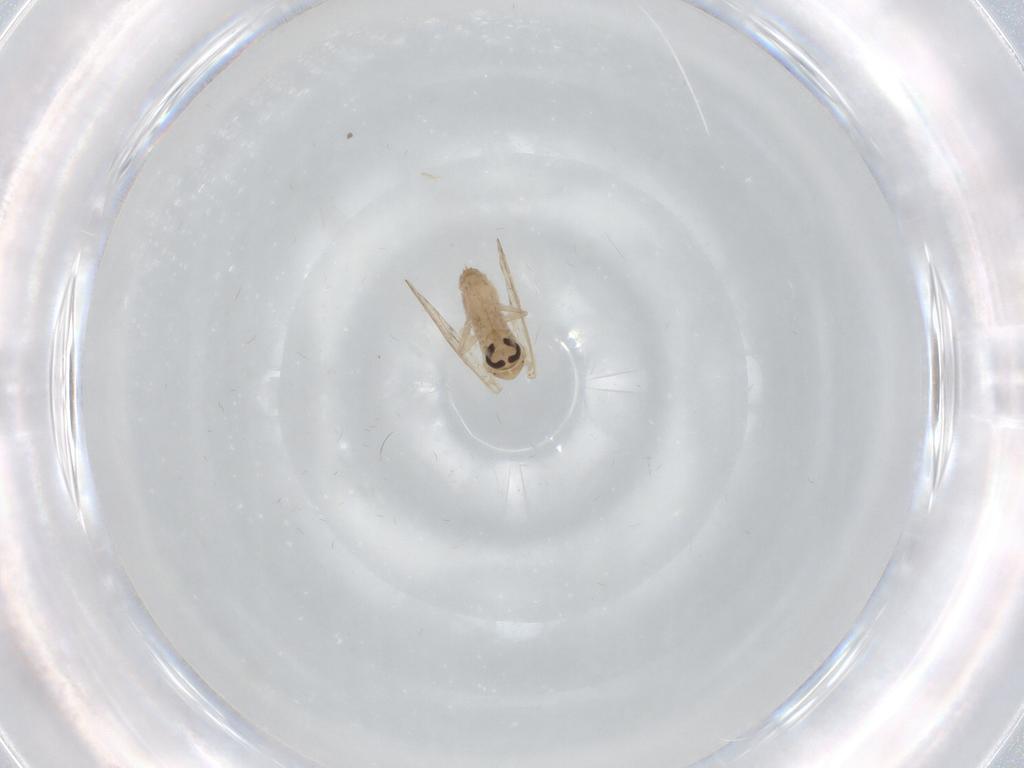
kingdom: Animalia
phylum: Arthropoda
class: Insecta
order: Diptera
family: Psychodidae
